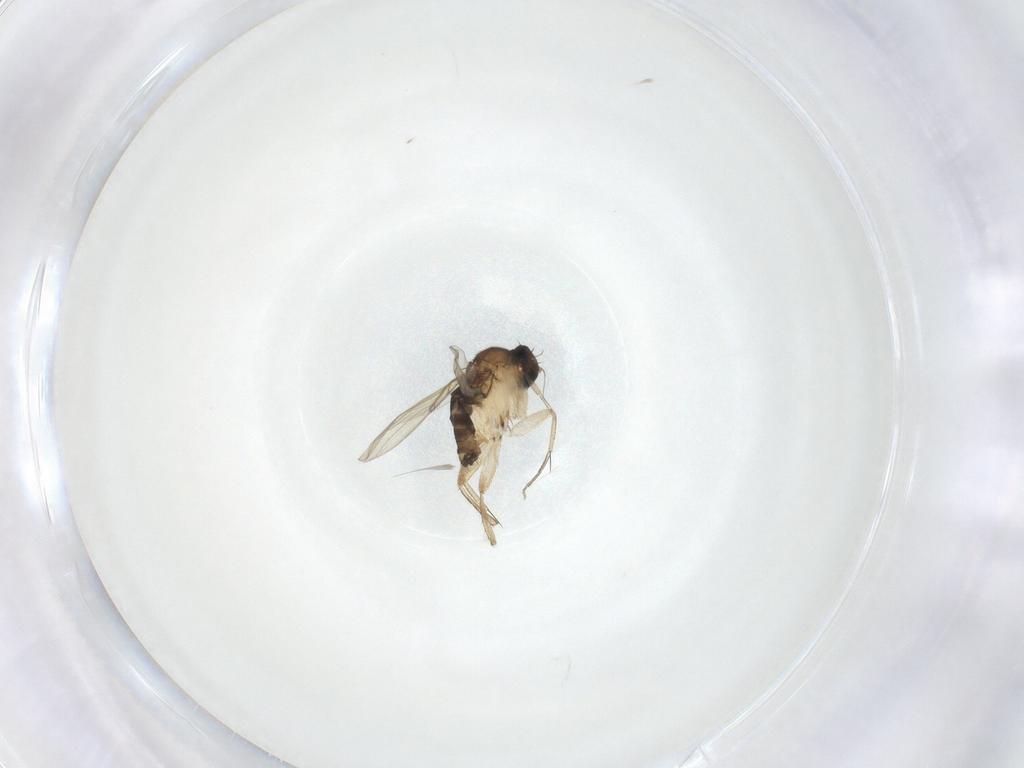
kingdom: Animalia
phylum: Arthropoda
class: Insecta
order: Diptera
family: Phoridae
